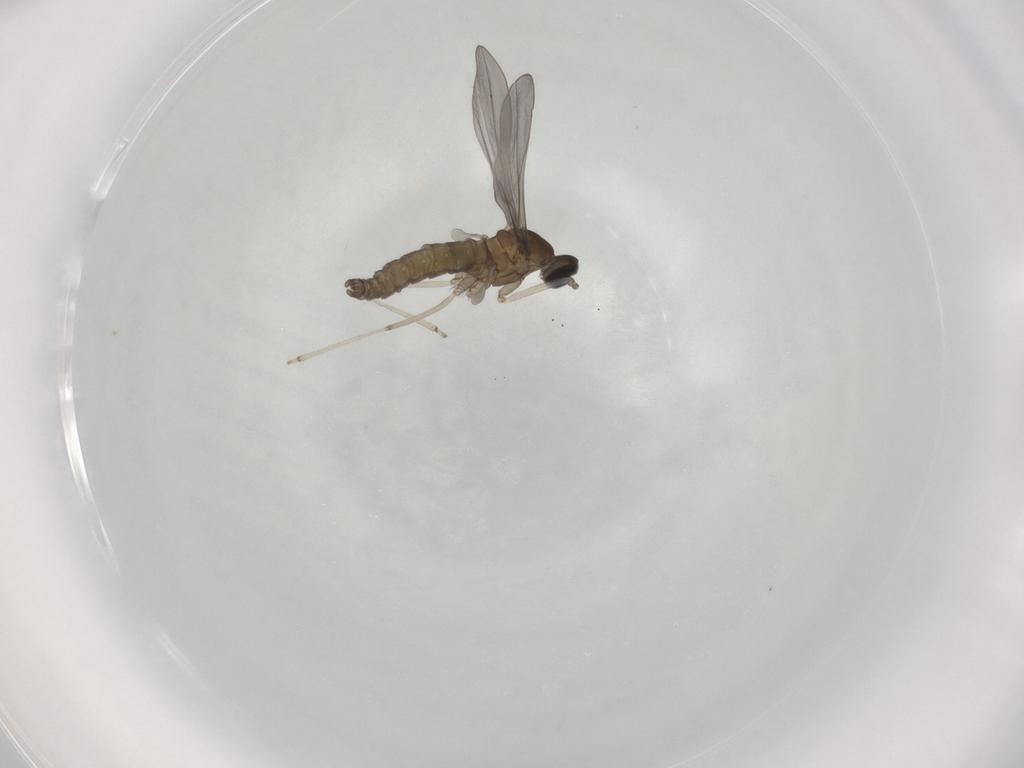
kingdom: Animalia
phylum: Arthropoda
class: Insecta
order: Diptera
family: Cecidomyiidae
